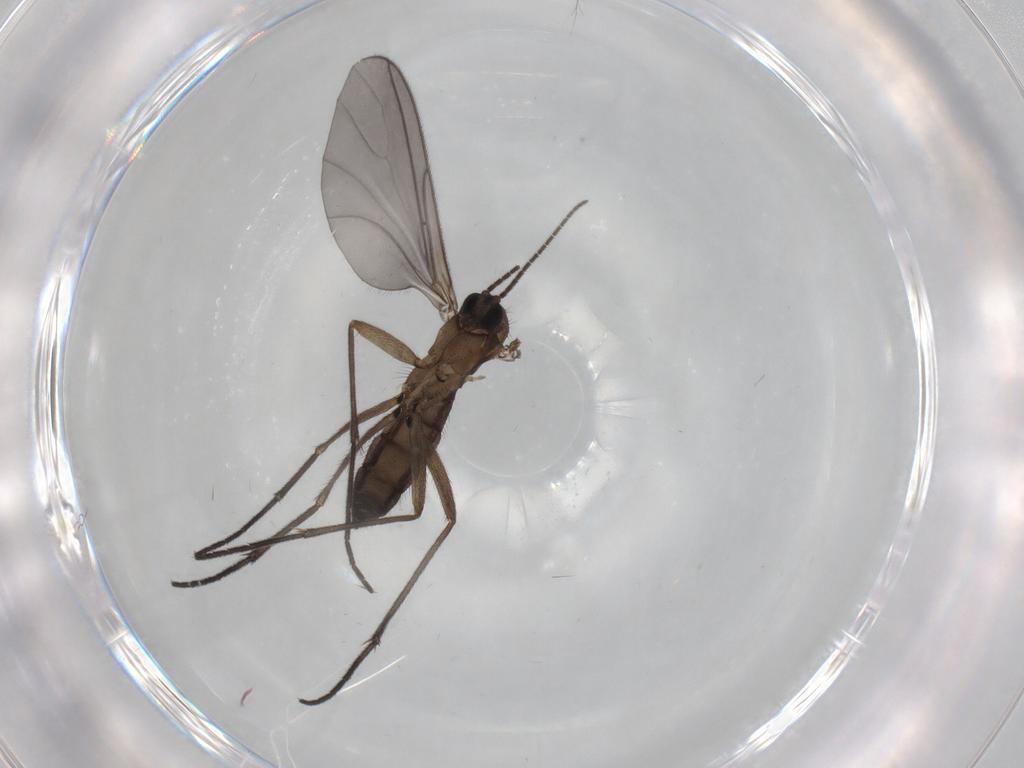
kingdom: Animalia
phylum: Arthropoda
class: Insecta
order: Diptera
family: Sciaridae
